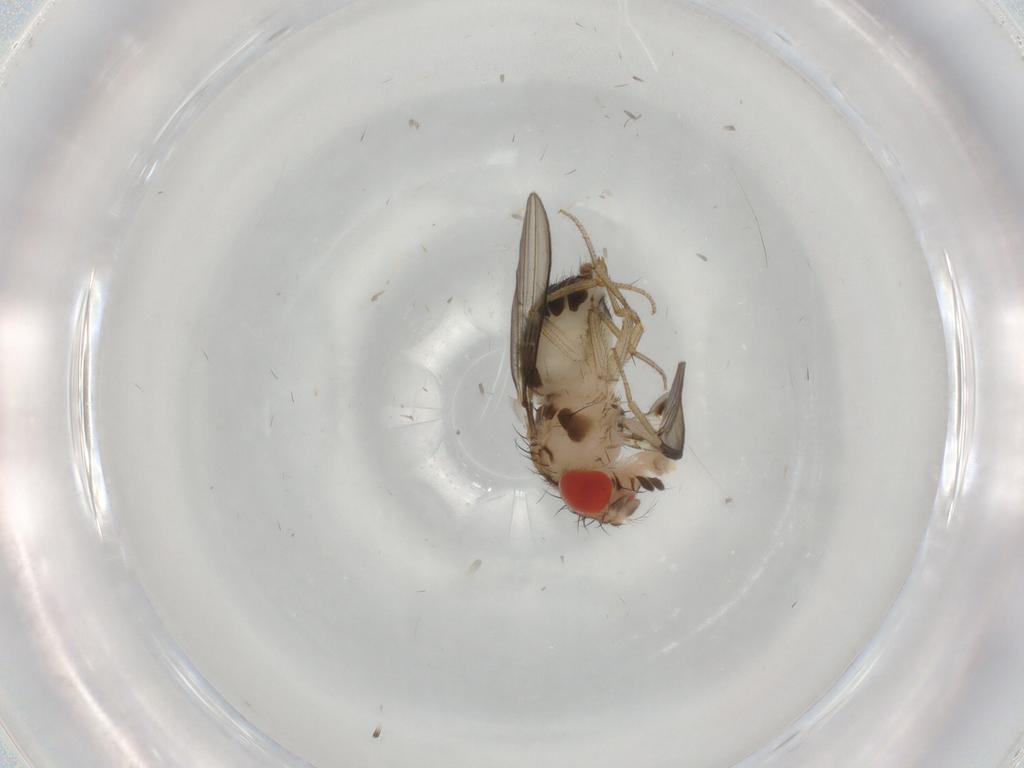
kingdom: Animalia
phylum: Arthropoda
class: Insecta
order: Diptera
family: Drosophilidae
